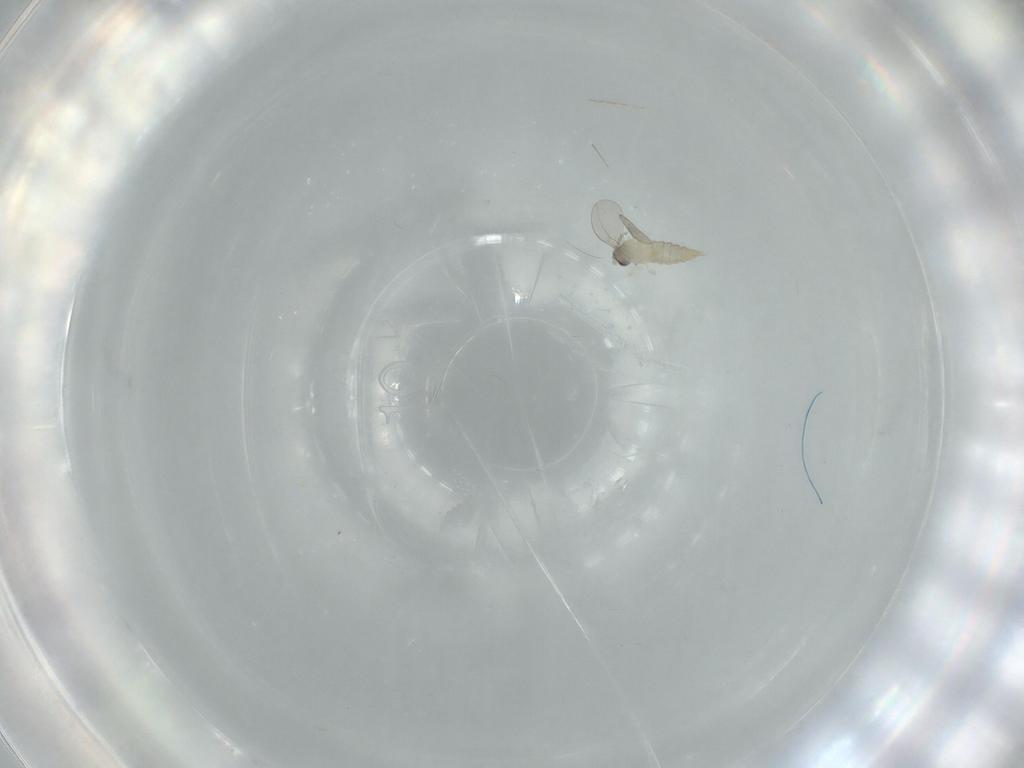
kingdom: Animalia
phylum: Arthropoda
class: Insecta
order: Diptera
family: Cecidomyiidae
